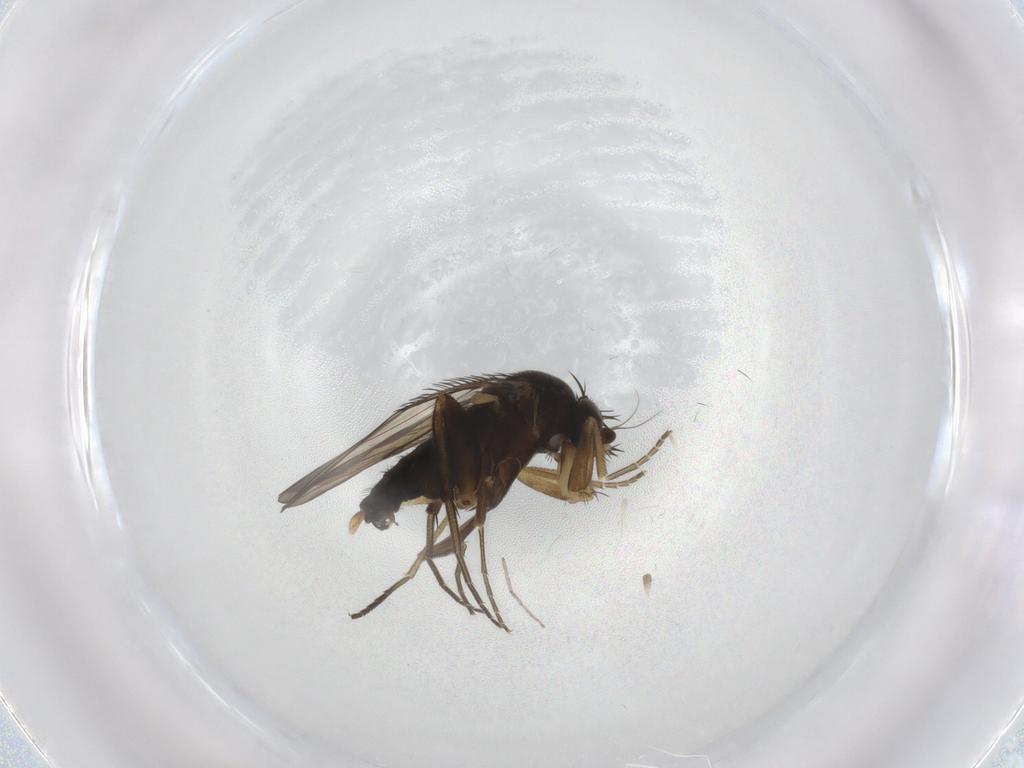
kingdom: Animalia
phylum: Arthropoda
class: Insecta
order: Diptera
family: Phoridae
